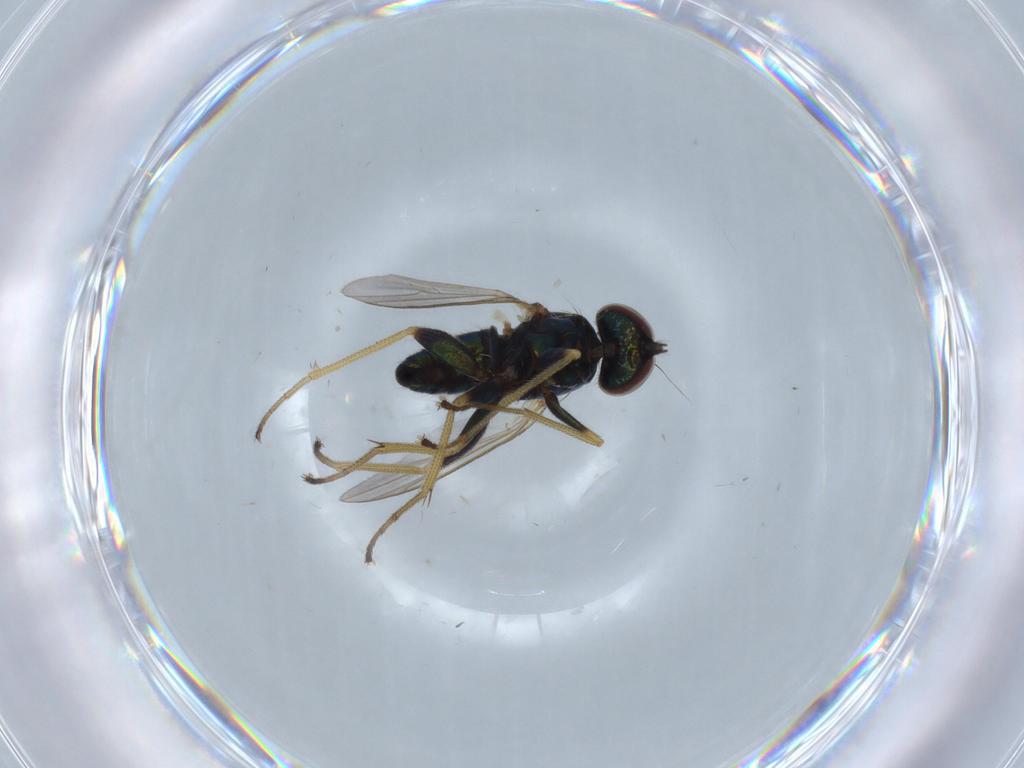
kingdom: Animalia
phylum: Arthropoda
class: Insecta
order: Diptera
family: Dolichopodidae
